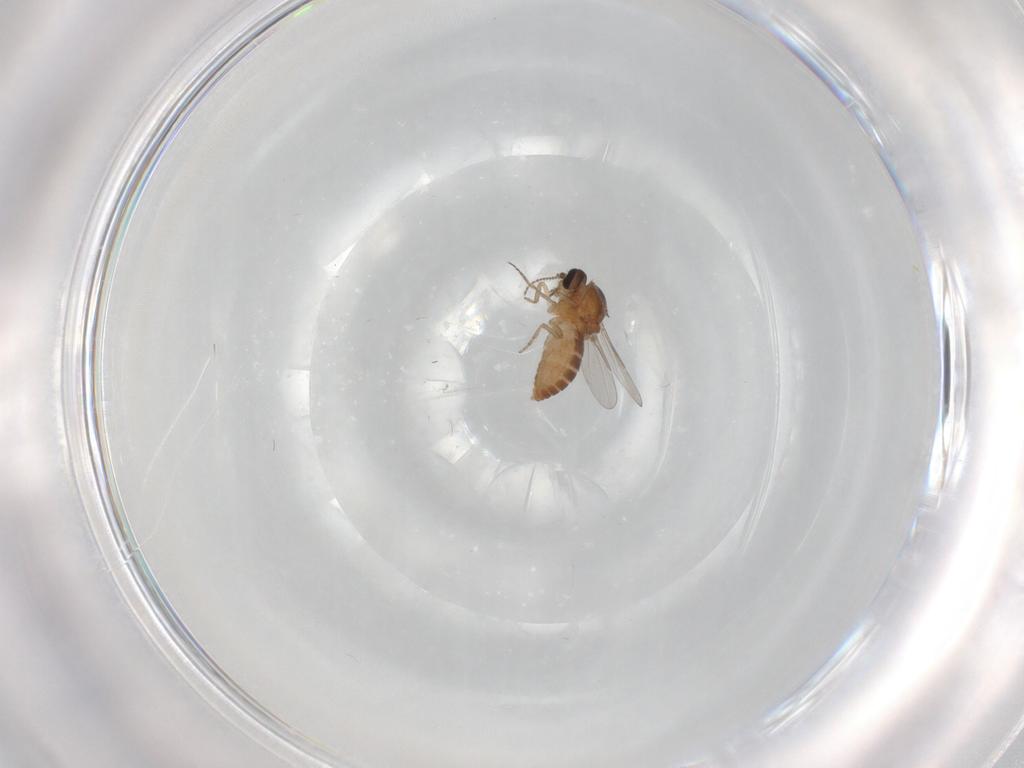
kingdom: Animalia
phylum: Arthropoda
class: Insecta
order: Diptera
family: Ceratopogonidae
